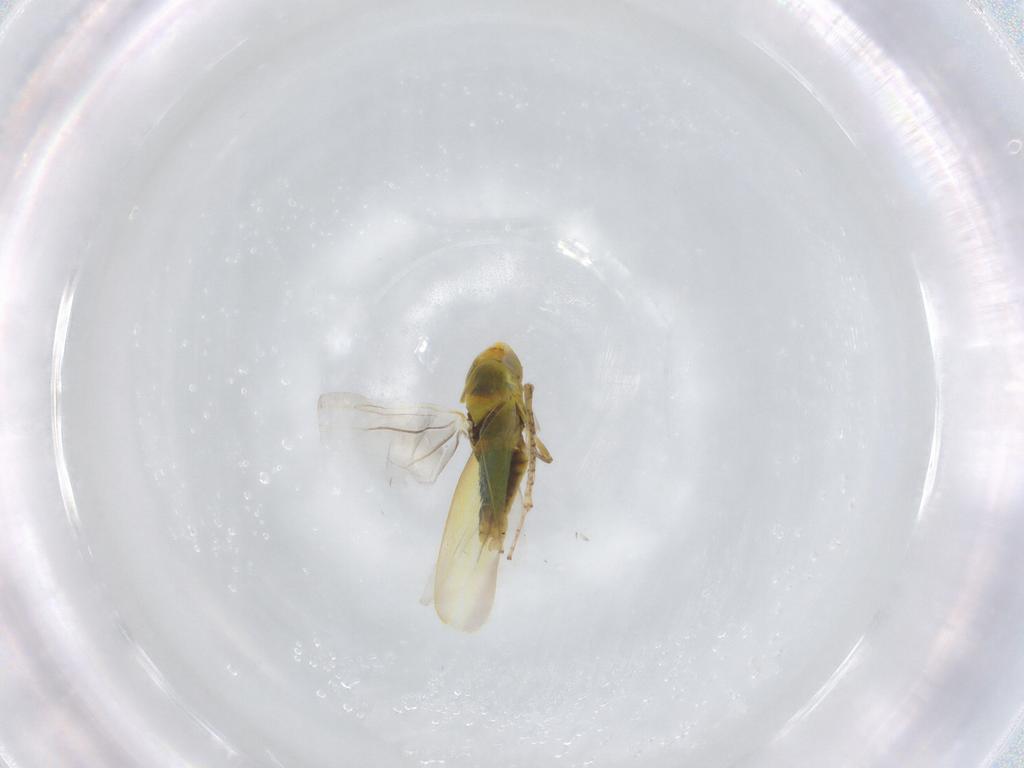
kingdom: Animalia
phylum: Arthropoda
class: Insecta
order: Hemiptera
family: Cicadellidae
